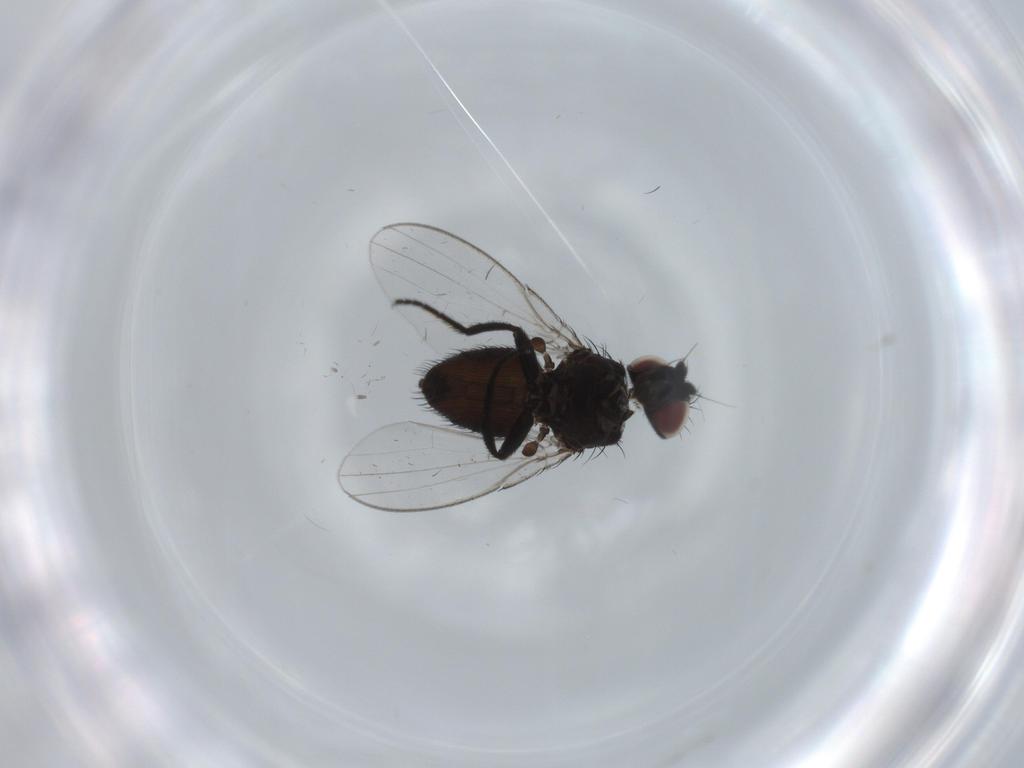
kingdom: Animalia
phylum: Arthropoda
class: Insecta
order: Diptera
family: Milichiidae
